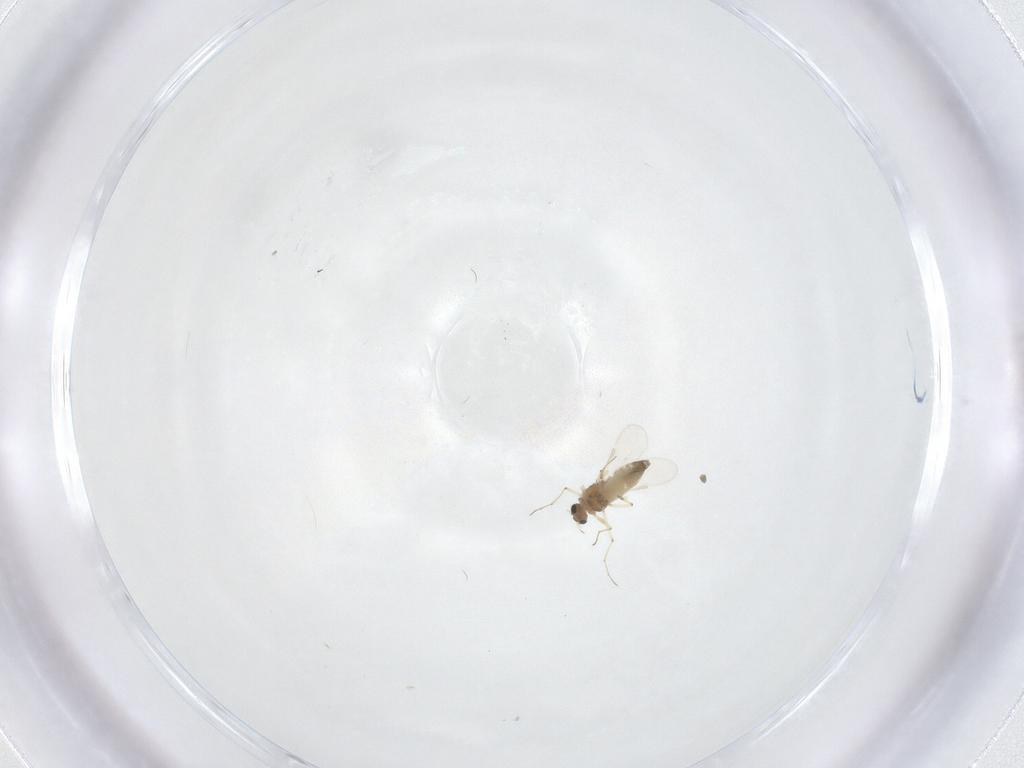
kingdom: Animalia
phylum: Arthropoda
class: Insecta
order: Diptera
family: Chironomidae
